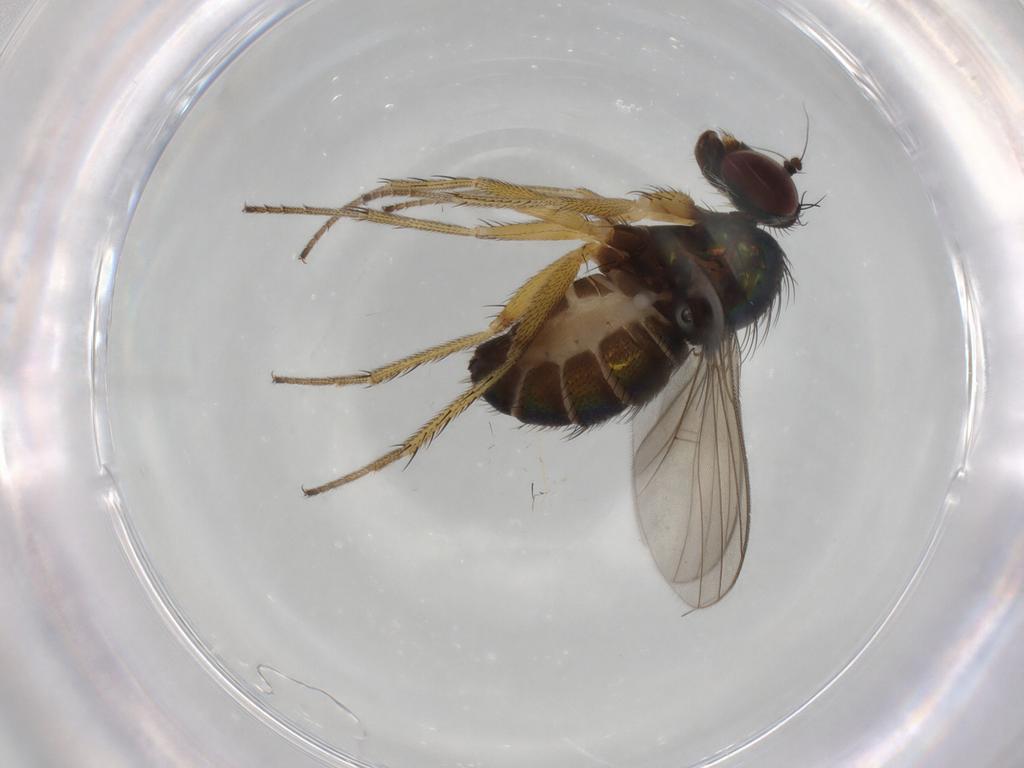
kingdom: Animalia
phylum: Arthropoda
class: Insecta
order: Diptera
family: Dolichopodidae
